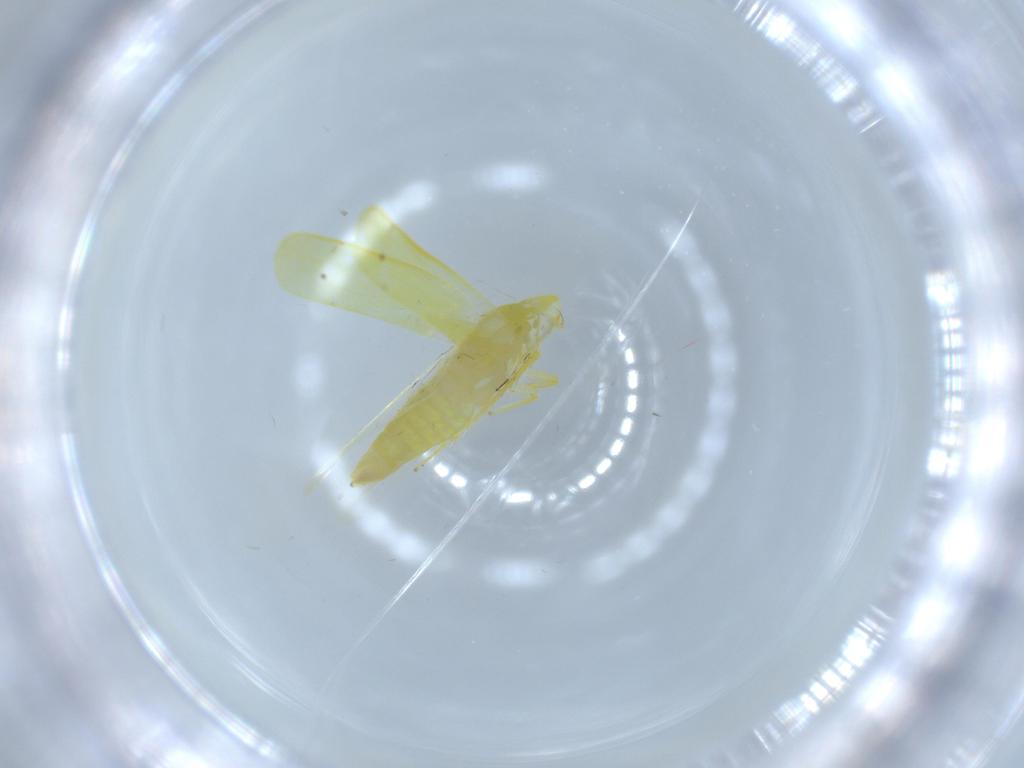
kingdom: Animalia
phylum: Arthropoda
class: Insecta
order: Hemiptera
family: Cicadellidae
